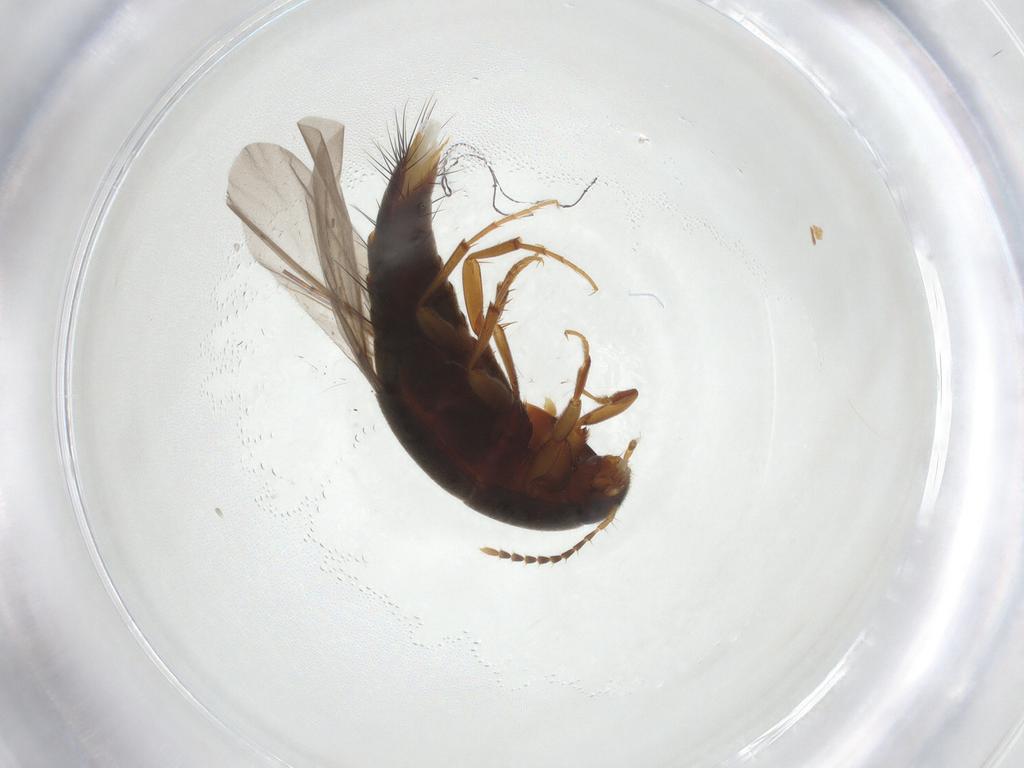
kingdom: Animalia
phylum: Arthropoda
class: Insecta
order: Coleoptera
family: Staphylinidae
